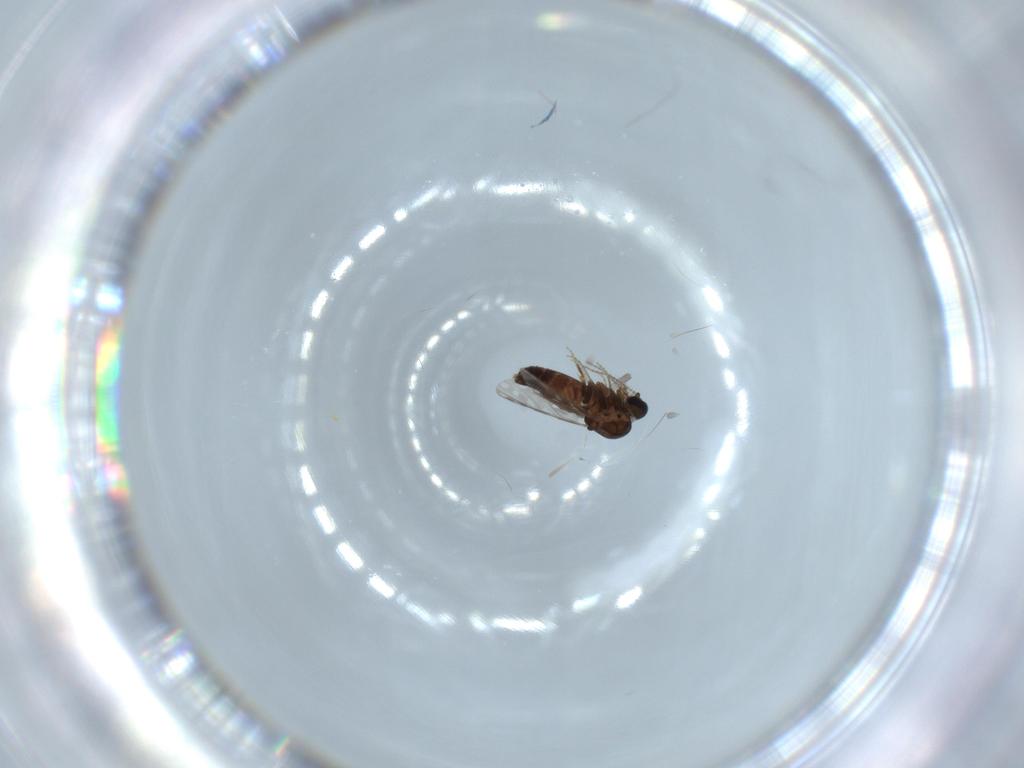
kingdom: Animalia
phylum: Arthropoda
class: Insecta
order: Diptera
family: Ceratopogonidae
